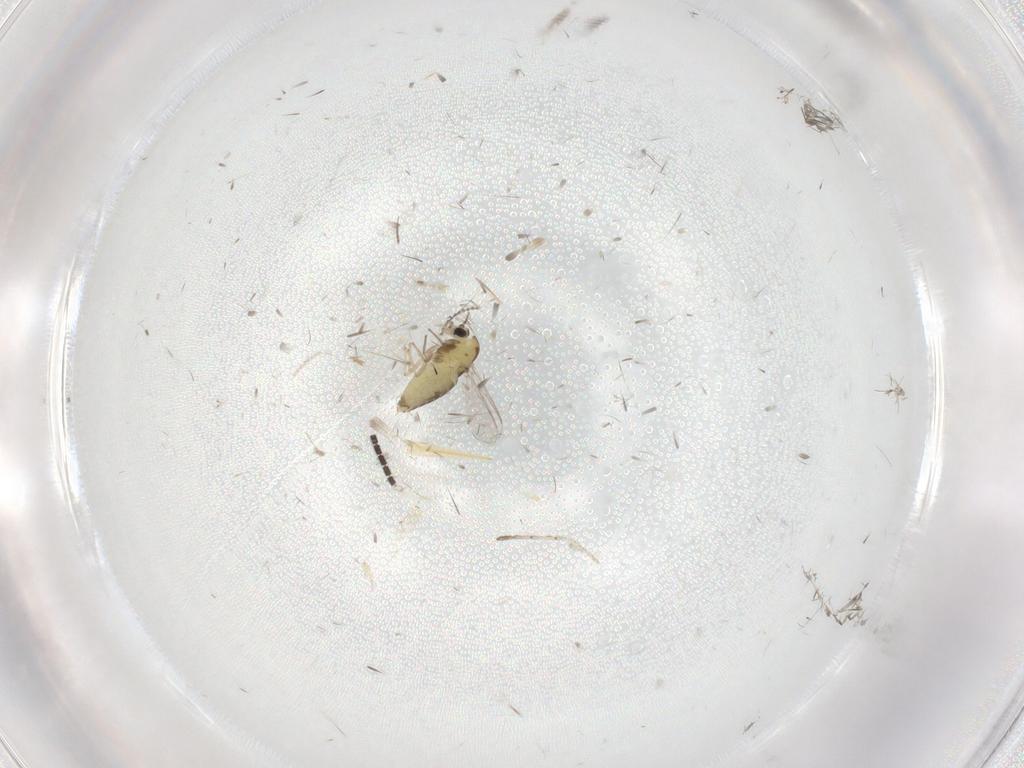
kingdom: Animalia
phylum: Arthropoda
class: Insecta
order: Diptera
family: Chironomidae
